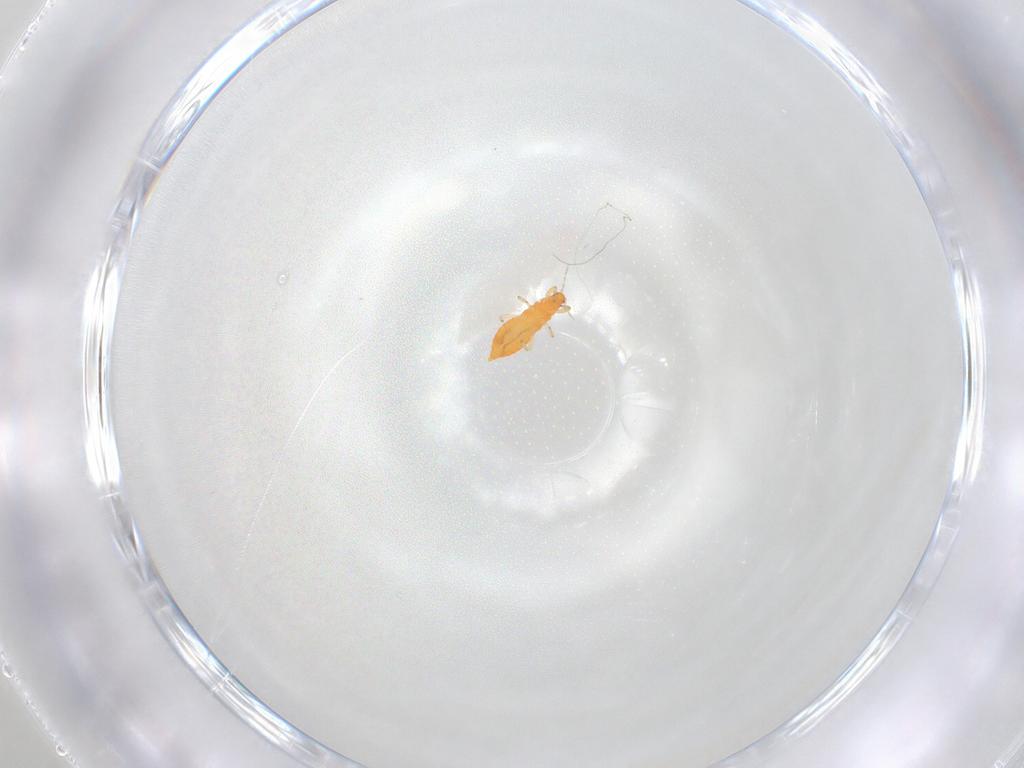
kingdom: Animalia
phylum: Arthropoda
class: Insecta
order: Thysanoptera
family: Aeolothripidae
